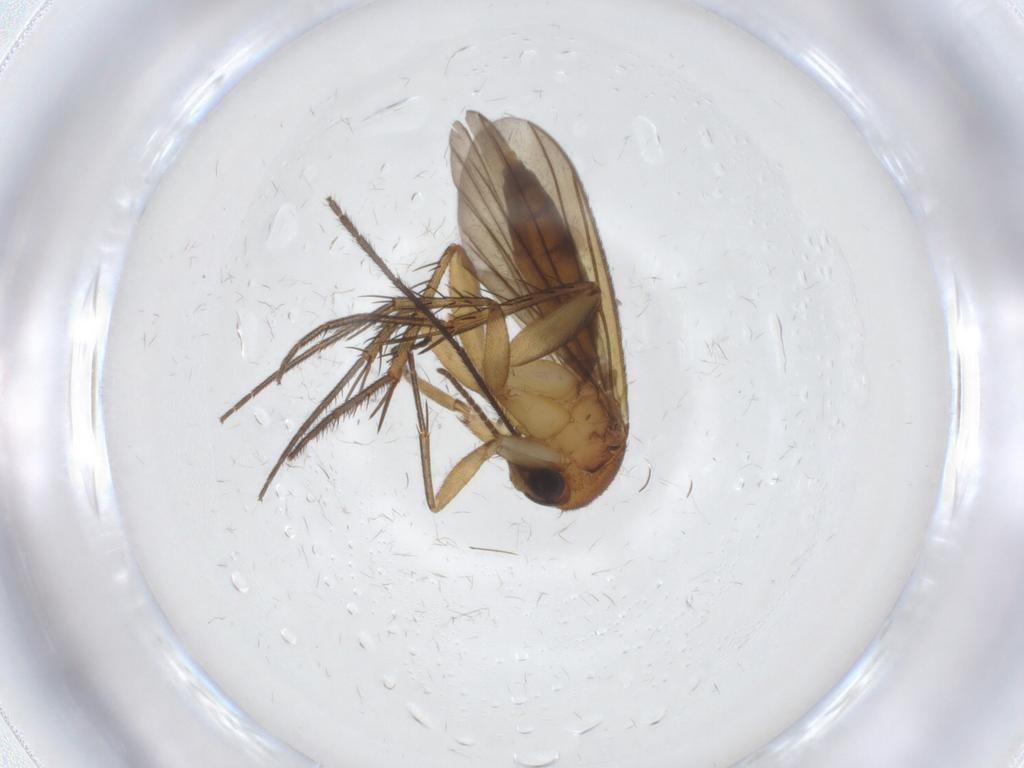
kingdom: Animalia
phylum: Arthropoda
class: Insecta
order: Diptera
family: Mycetophilidae
